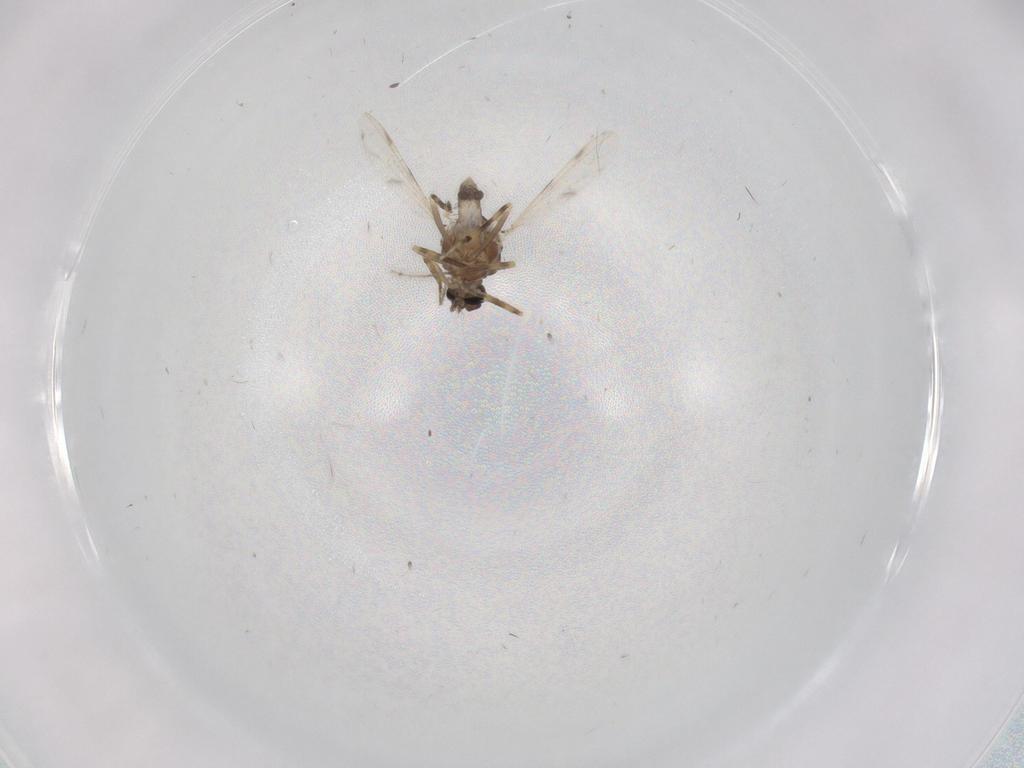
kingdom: Animalia
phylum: Arthropoda
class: Insecta
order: Diptera
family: Ceratopogonidae
